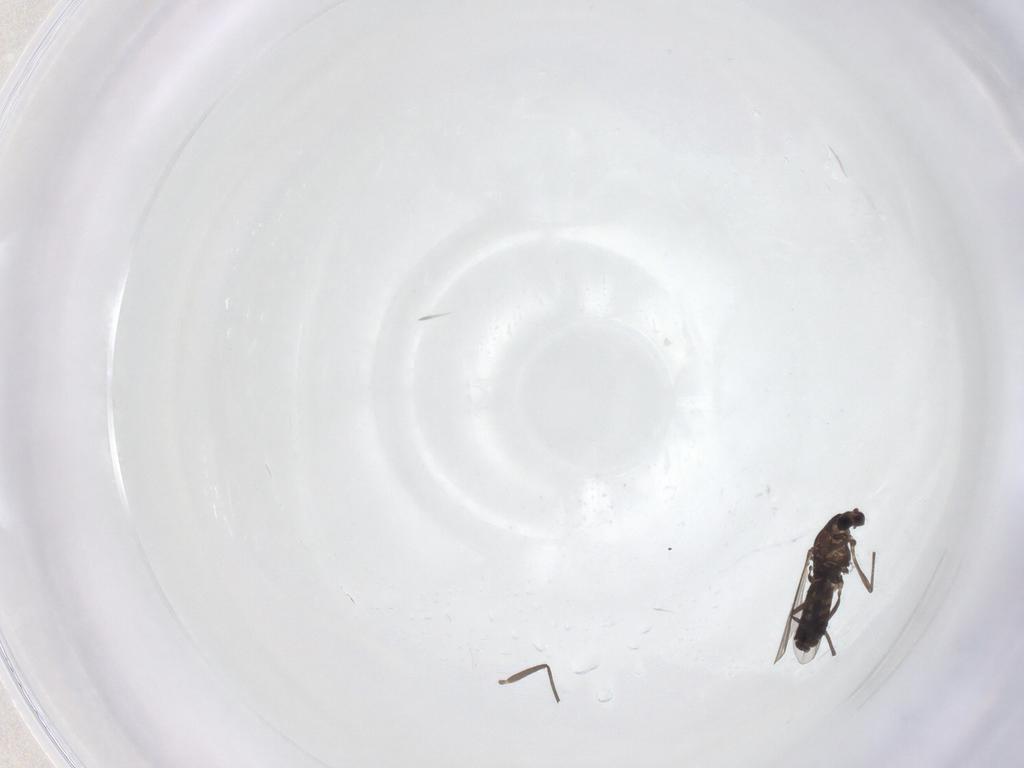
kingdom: Animalia
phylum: Arthropoda
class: Insecta
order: Diptera
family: Chironomidae
